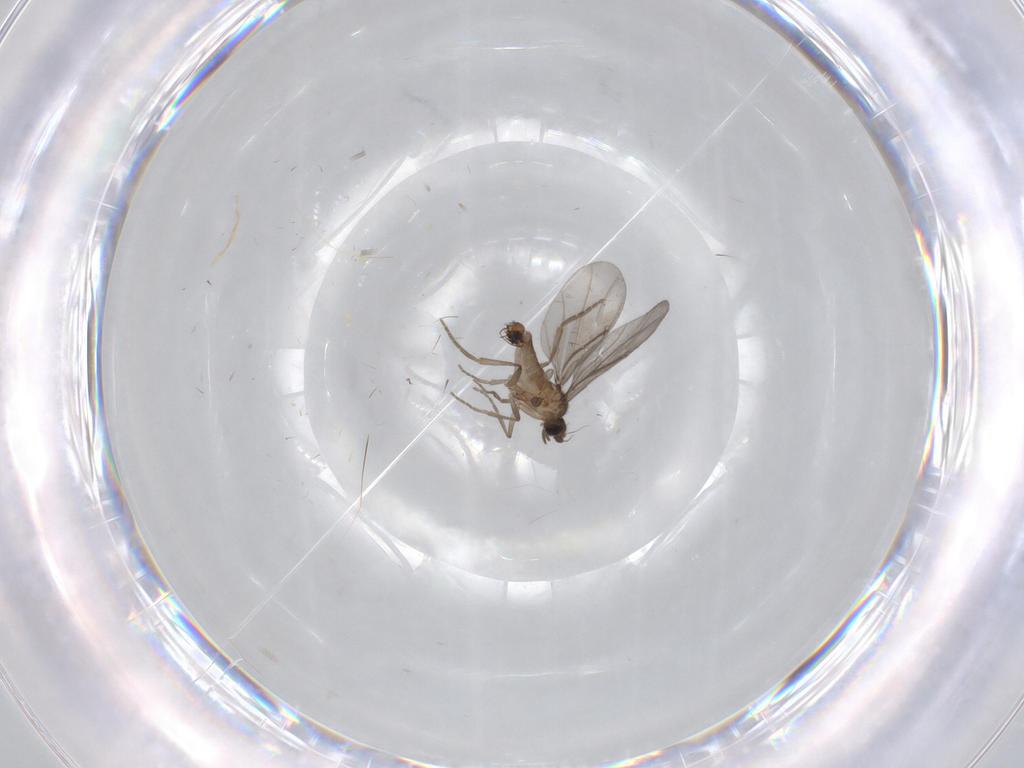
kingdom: Animalia
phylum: Arthropoda
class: Insecta
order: Diptera
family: Phoridae
